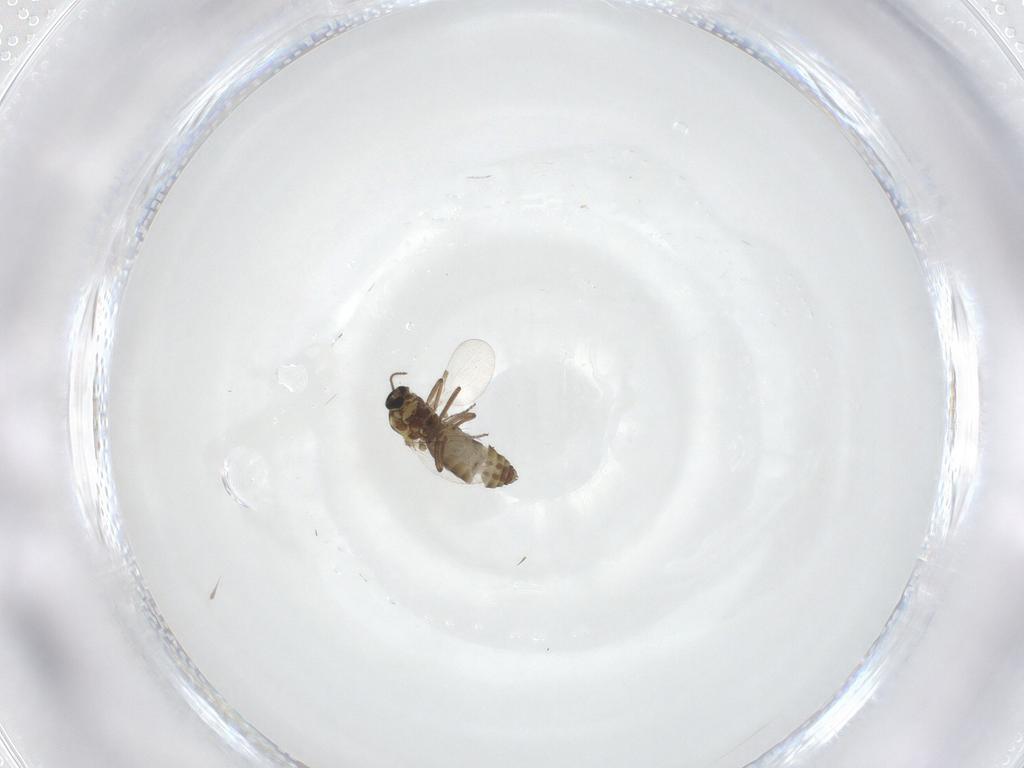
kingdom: Animalia
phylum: Arthropoda
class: Insecta
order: Diptera
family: Ceratopogonidae
